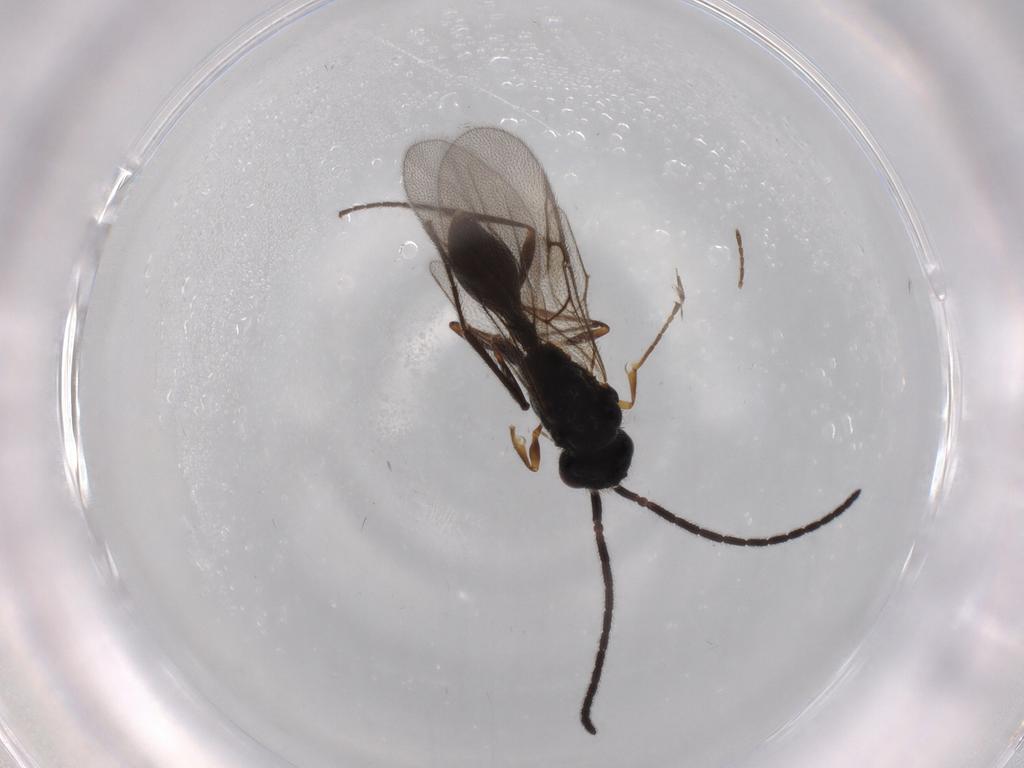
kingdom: Animalia
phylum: Arthropoda
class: Insecta
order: Hymenoptera
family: Diapriidae
